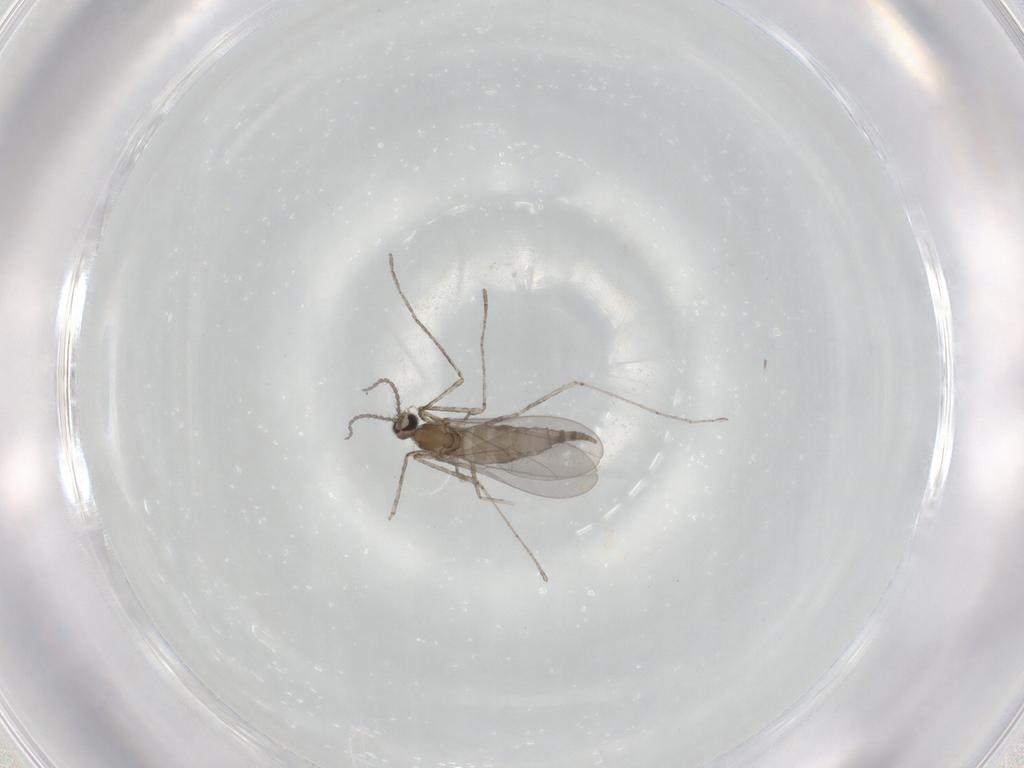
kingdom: Animalia
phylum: Arthropoda
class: Insecta
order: Diptera
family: Cecidomyiidae
